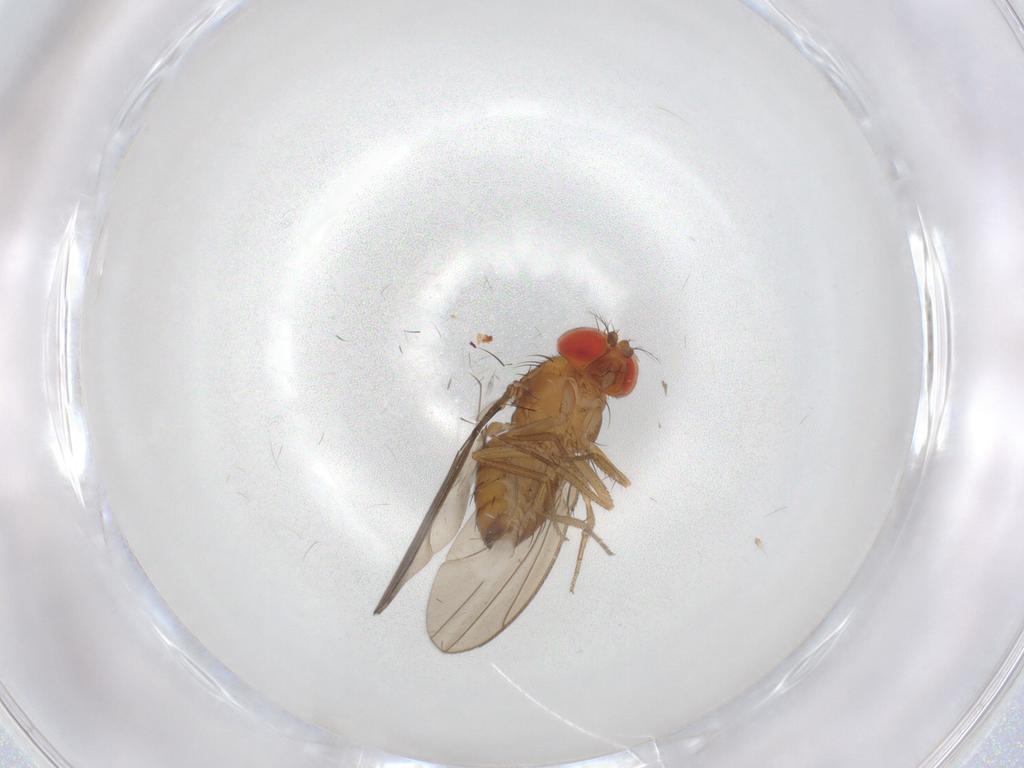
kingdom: Animalia
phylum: Arthropoda
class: Insecta
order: Diptera
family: Drosophilidae
